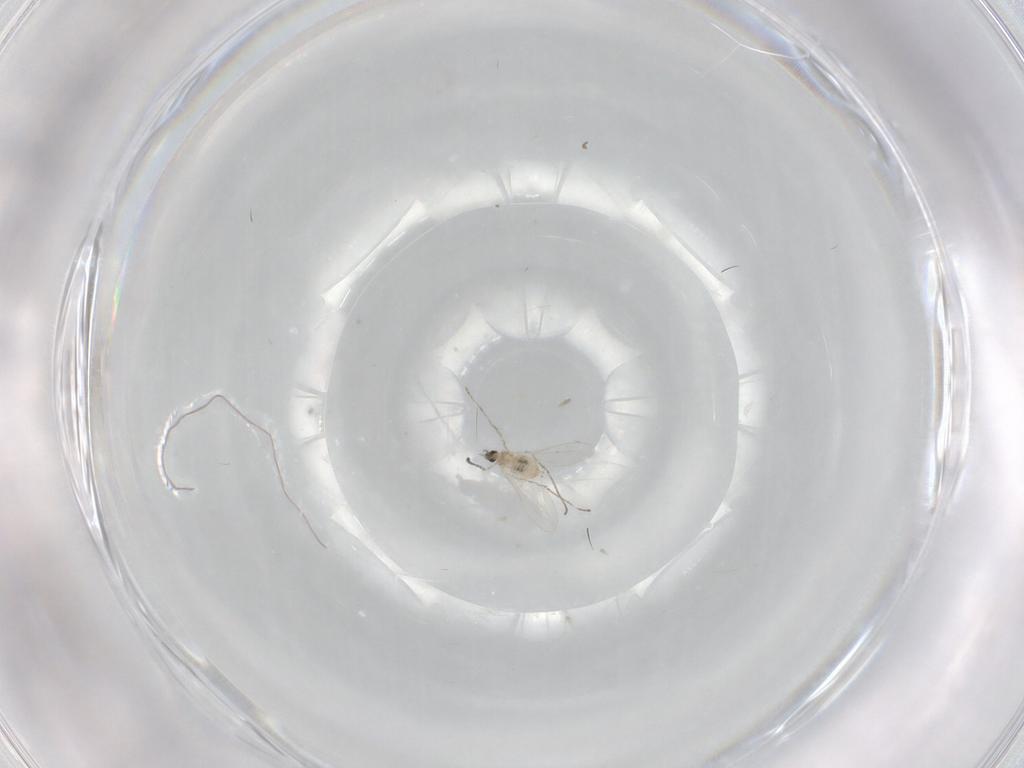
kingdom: Animalia
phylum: Arthropoda
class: Insecta
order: Diptera
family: Cecidomyiidae
